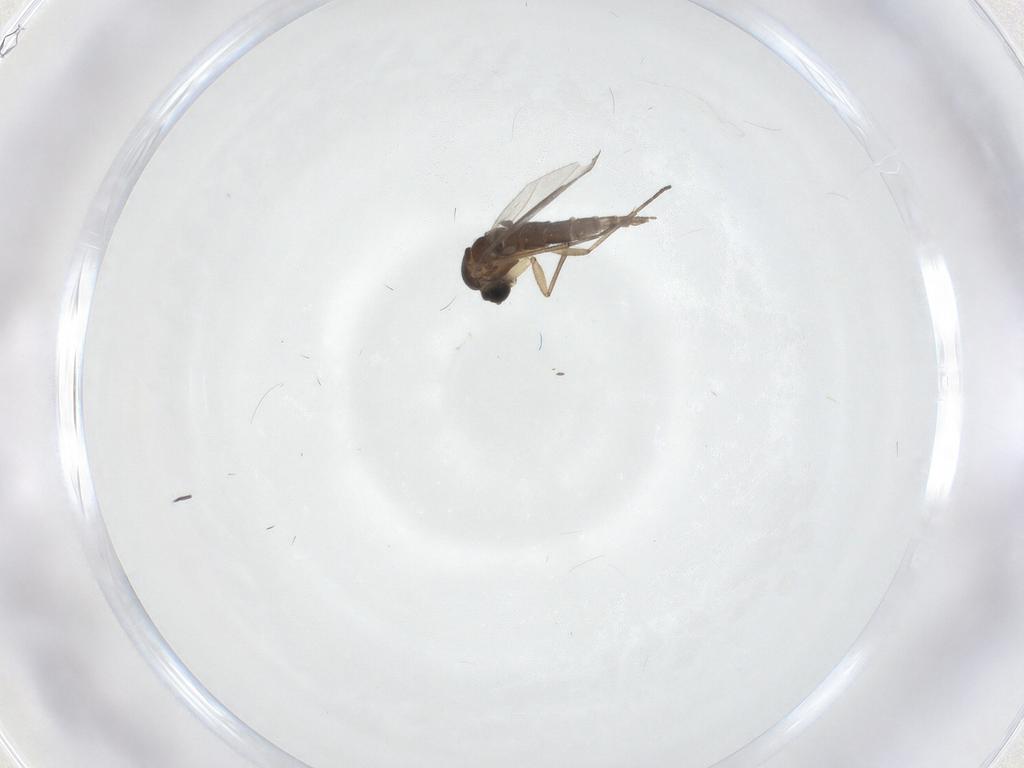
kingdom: Animalia
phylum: Arthropoda
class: Insecta
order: Diptera
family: Sciaridae
